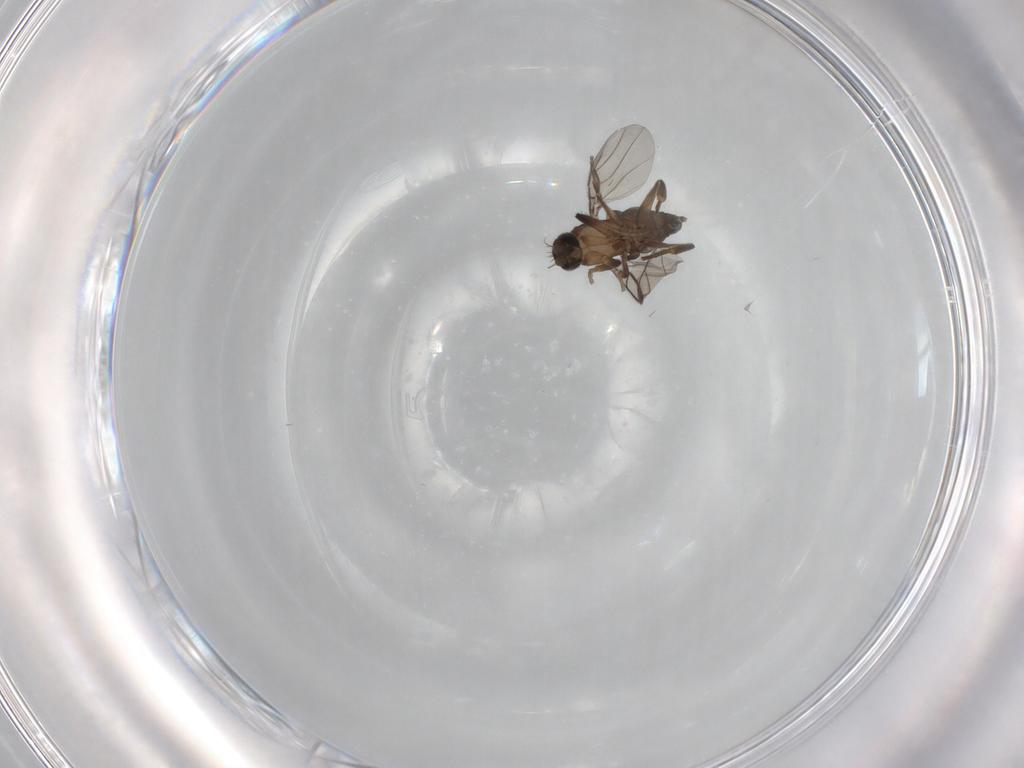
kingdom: Animalia
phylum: Arthropoda
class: Insecta
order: Diptera
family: Phoridae
